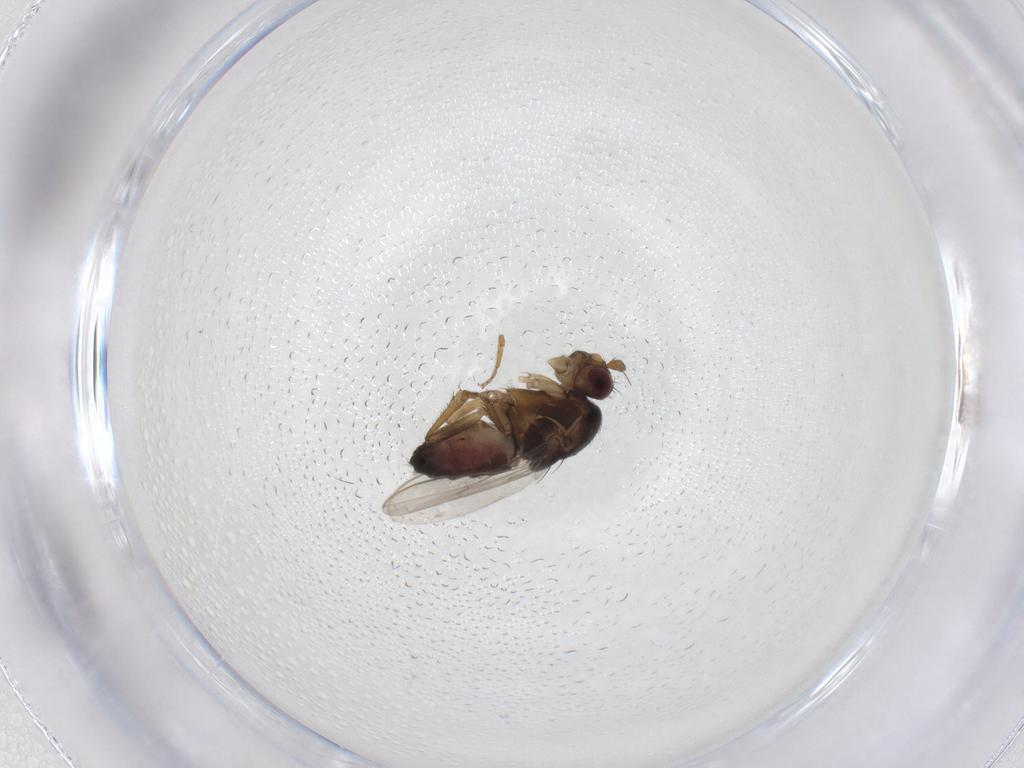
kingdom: Animalia
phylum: Arthropoda
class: Insecta
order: Diptera
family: Sphaeroceridae
